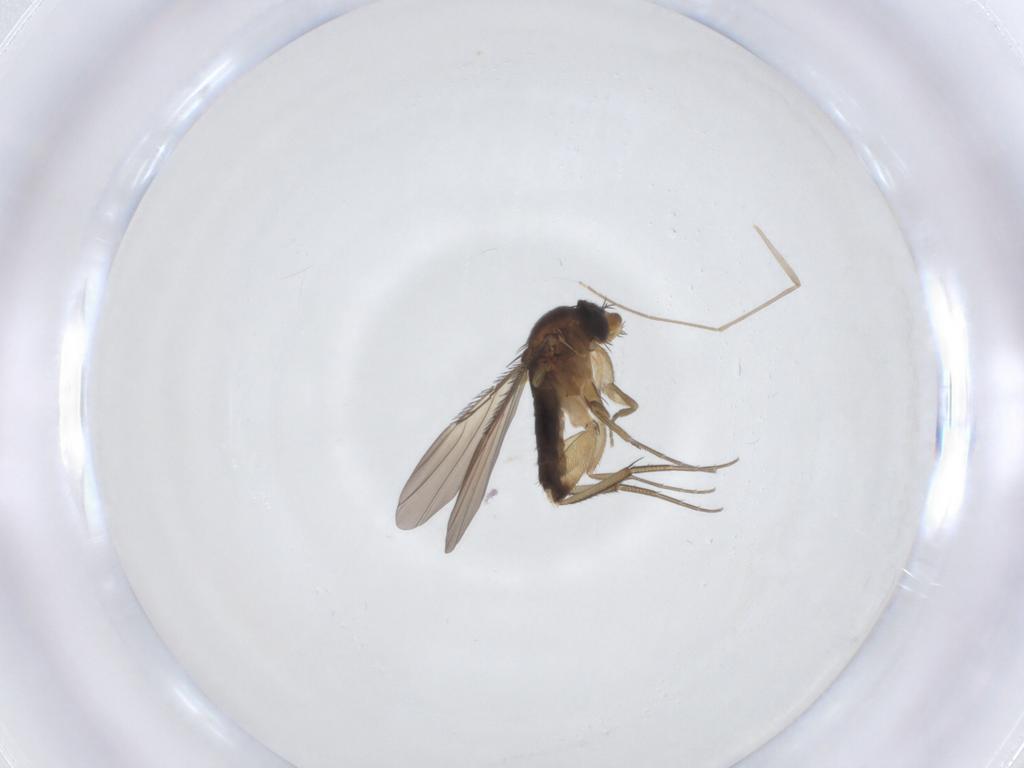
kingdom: Animalia
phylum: Arthropoda
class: Insecta
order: Diptera
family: Phoridae
